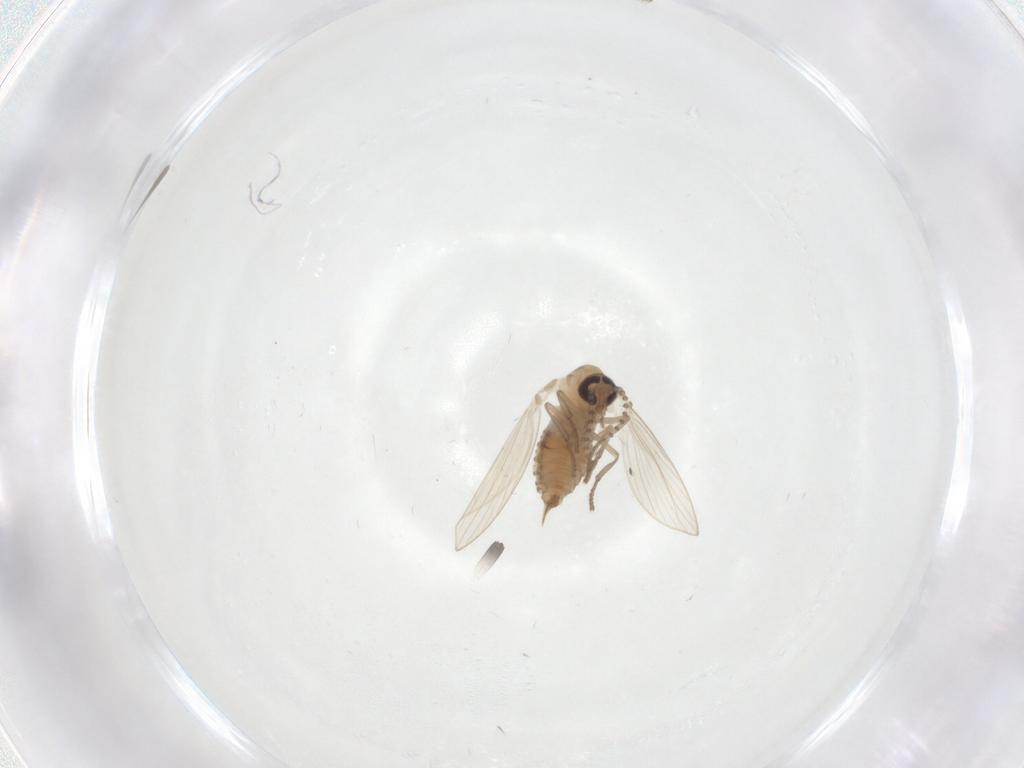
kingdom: Animalia
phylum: Arthropoda
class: Insecta
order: Diptera
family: Psychodidae
